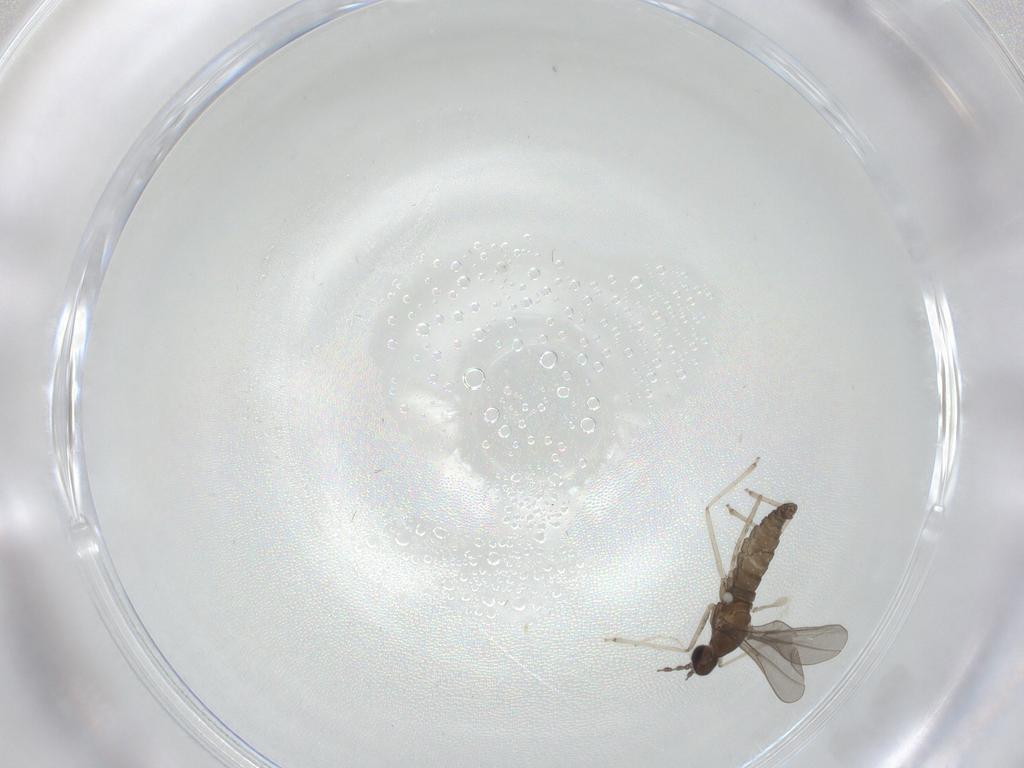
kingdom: Animalia
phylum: Arthropoda
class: Insecta
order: Diptera
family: Cecidomyiidae
